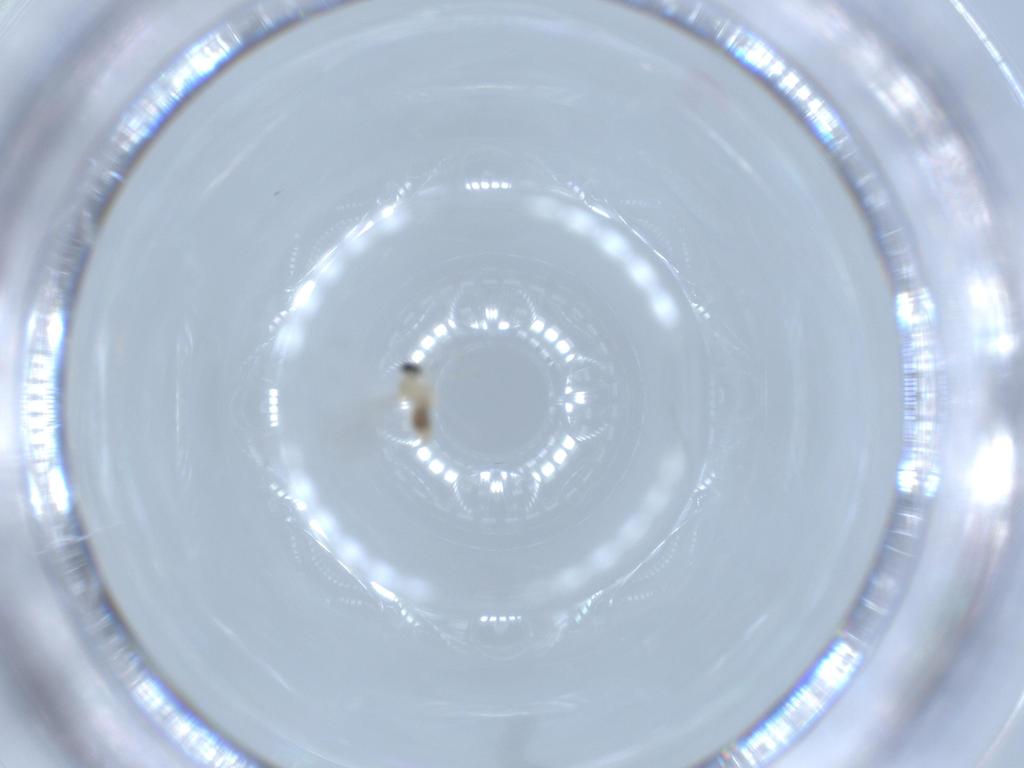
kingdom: Animalia
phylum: Arthropoda
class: Insecta
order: Diptera
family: Cecidomyiidae
